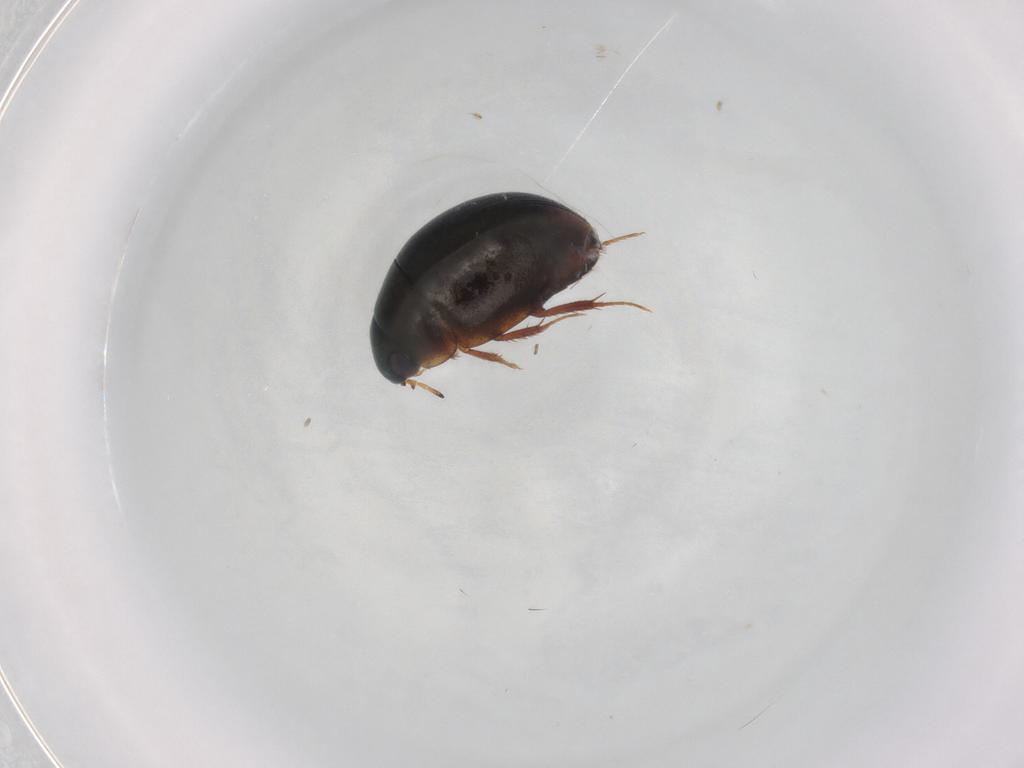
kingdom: Animalia
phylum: Arthropoda
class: Insecta
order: Coleoptera
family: Hydrophilidae
